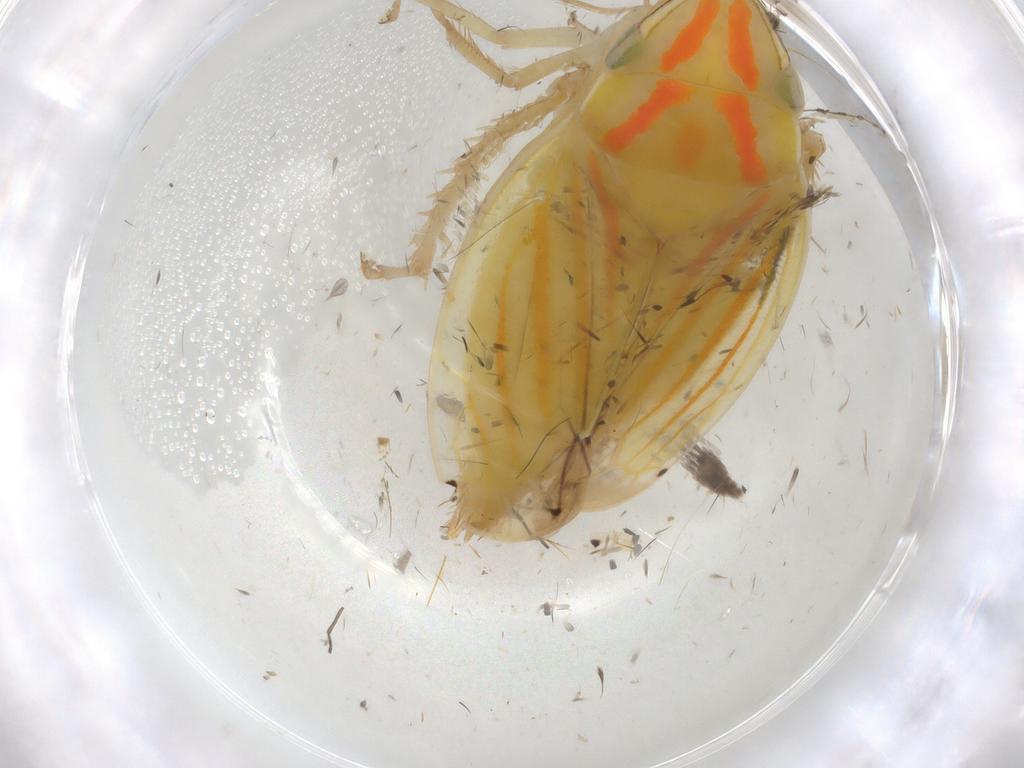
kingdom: Animalia
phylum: Arthropoda
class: Insecta
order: Hemiptera
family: Cicadellidae
